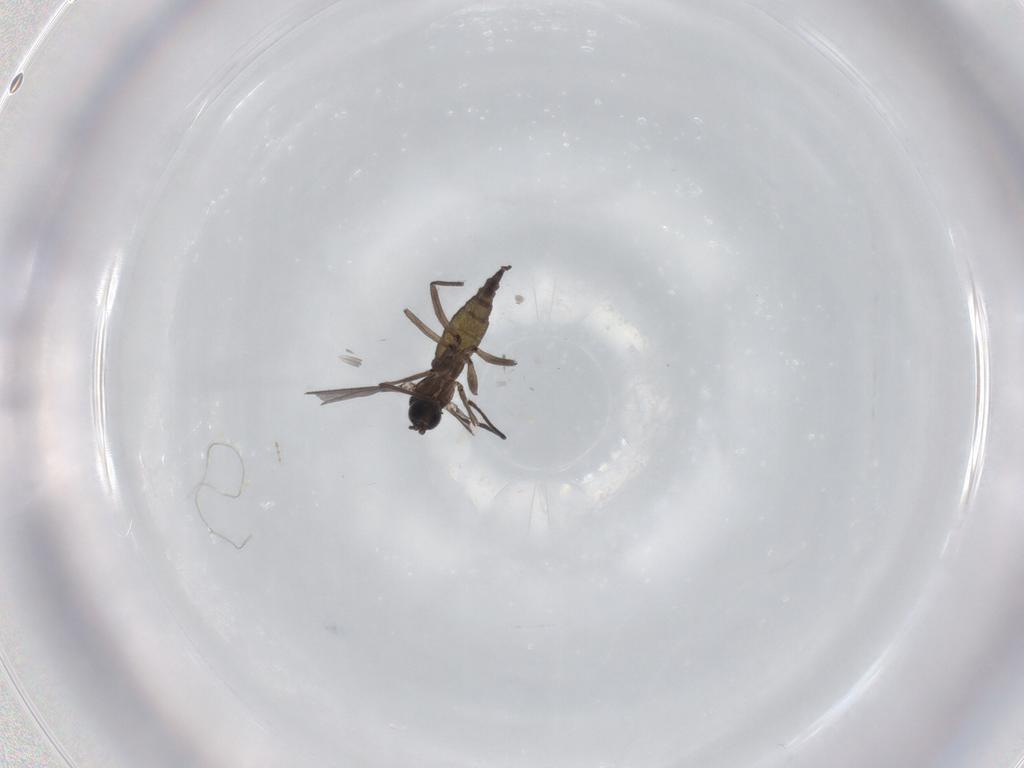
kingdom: Animalia
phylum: Arthropoda
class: Insecta
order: Diptera
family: Sciaridae
